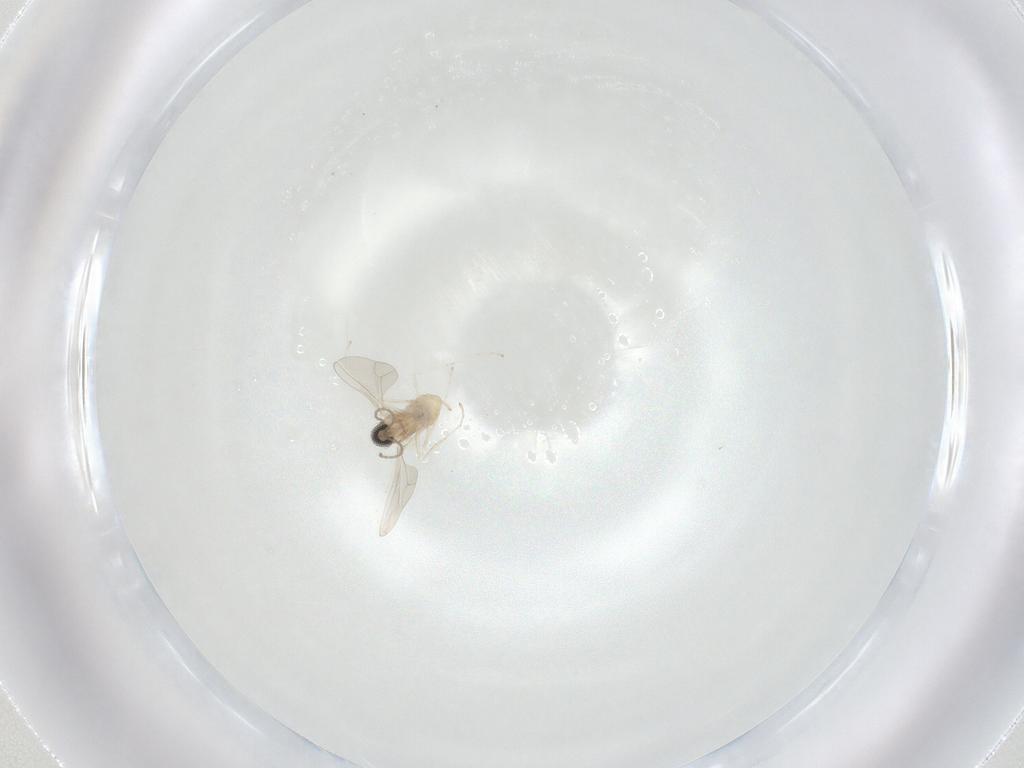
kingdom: Animalia
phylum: Arthropoda
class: Insecta
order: Diptera
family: Cecidomyiidae
